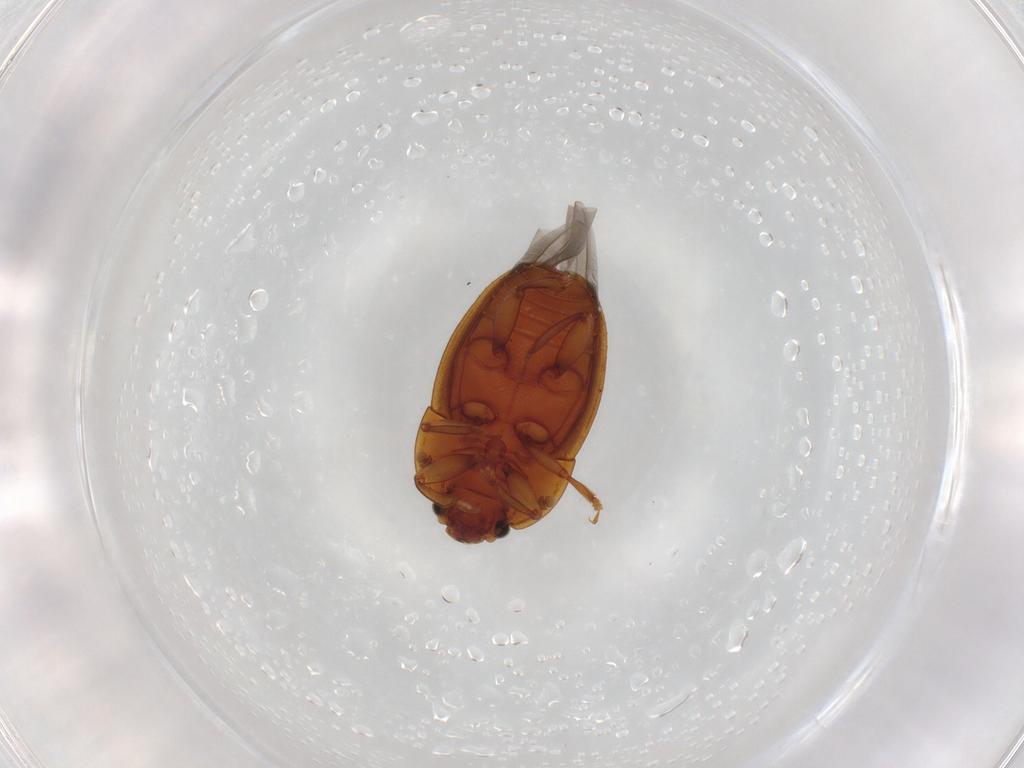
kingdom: Animalia
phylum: Arthropoda
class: Insecta
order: Coleoptera
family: Nitidulidae
